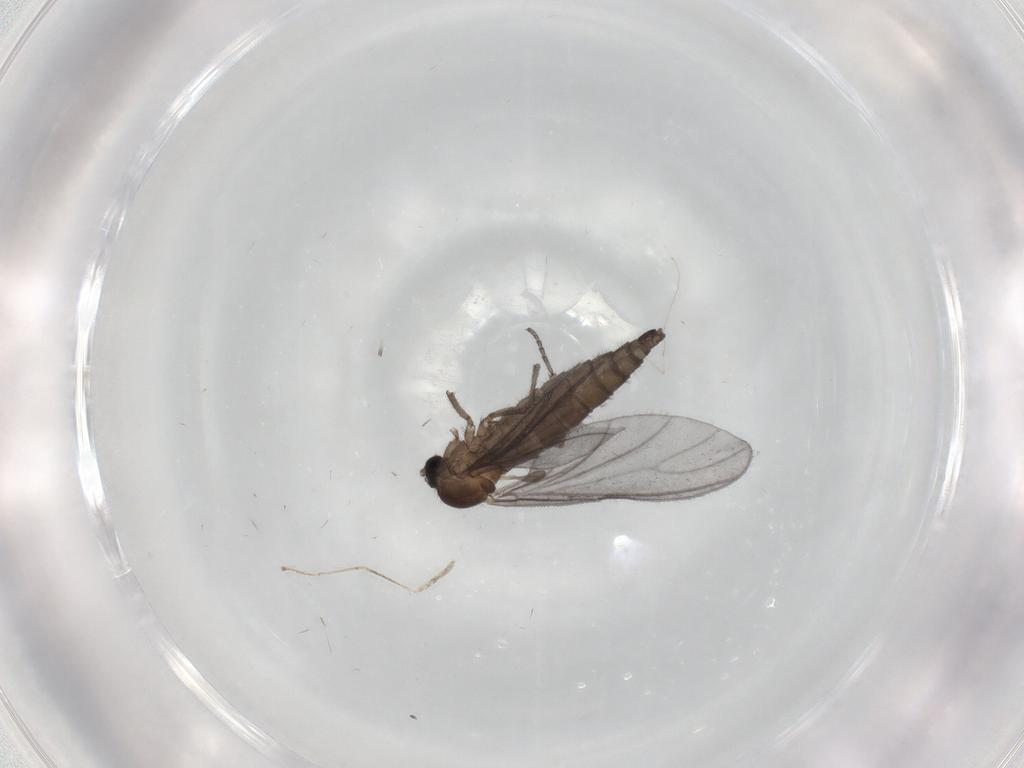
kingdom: Animalia
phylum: Arthropoda
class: Insecta
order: Diptera
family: Sciaridae
